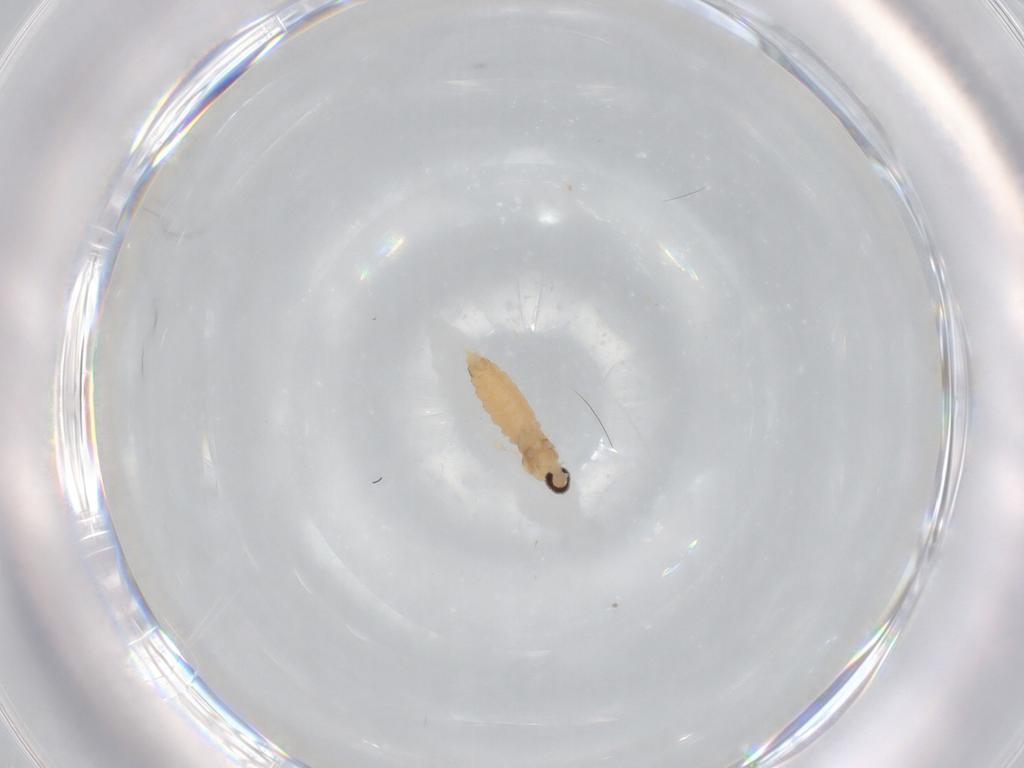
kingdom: Animalia
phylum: Arthropoda
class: Insecta
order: Diptera
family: Cecidomyiidae
